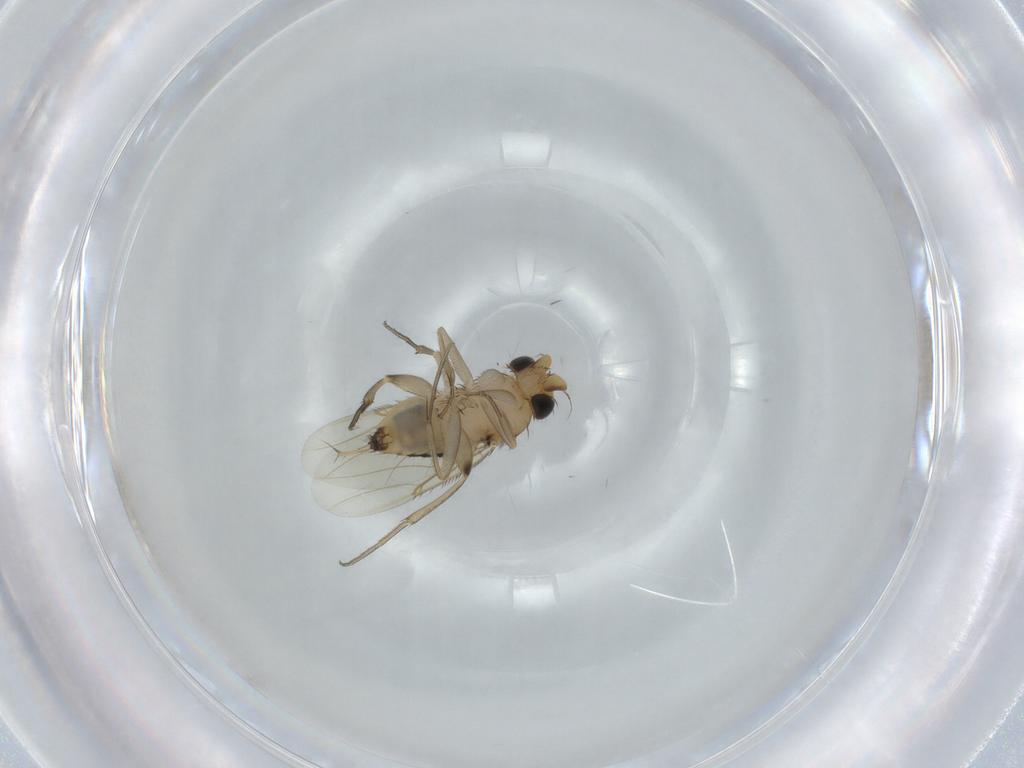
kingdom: Animalia
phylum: Arthropoda
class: Insecta
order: Diptera
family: Phoridae
